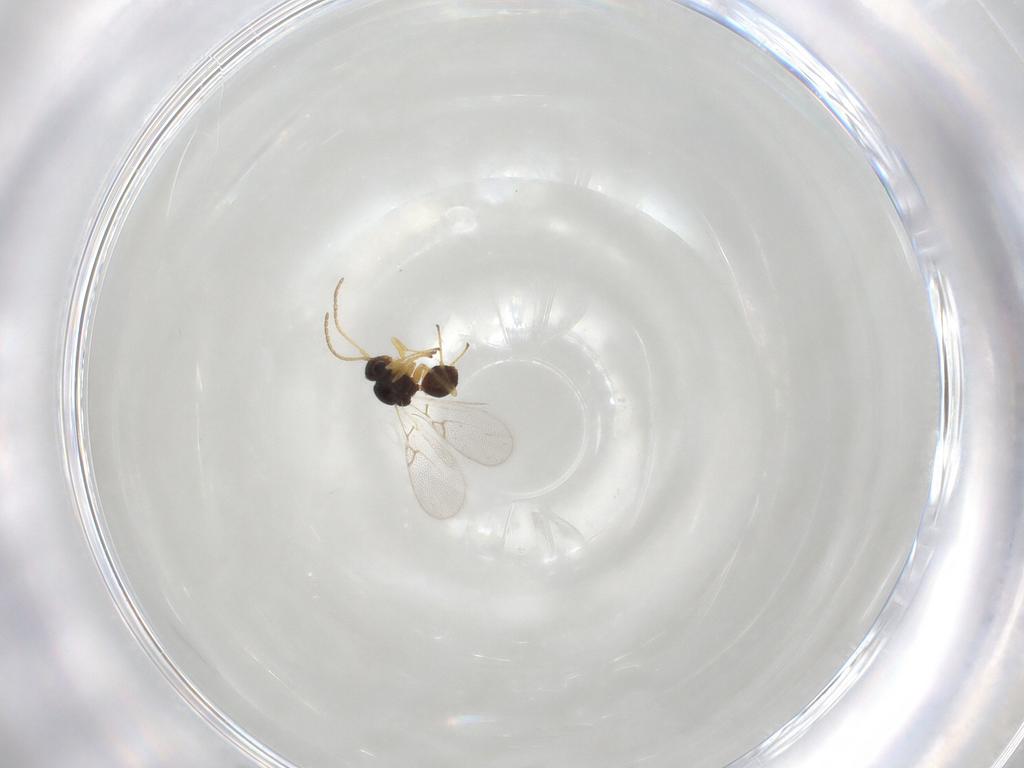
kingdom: Animalia
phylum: Arthropoda
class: Insecta
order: Hymenoptera
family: Figitidae
